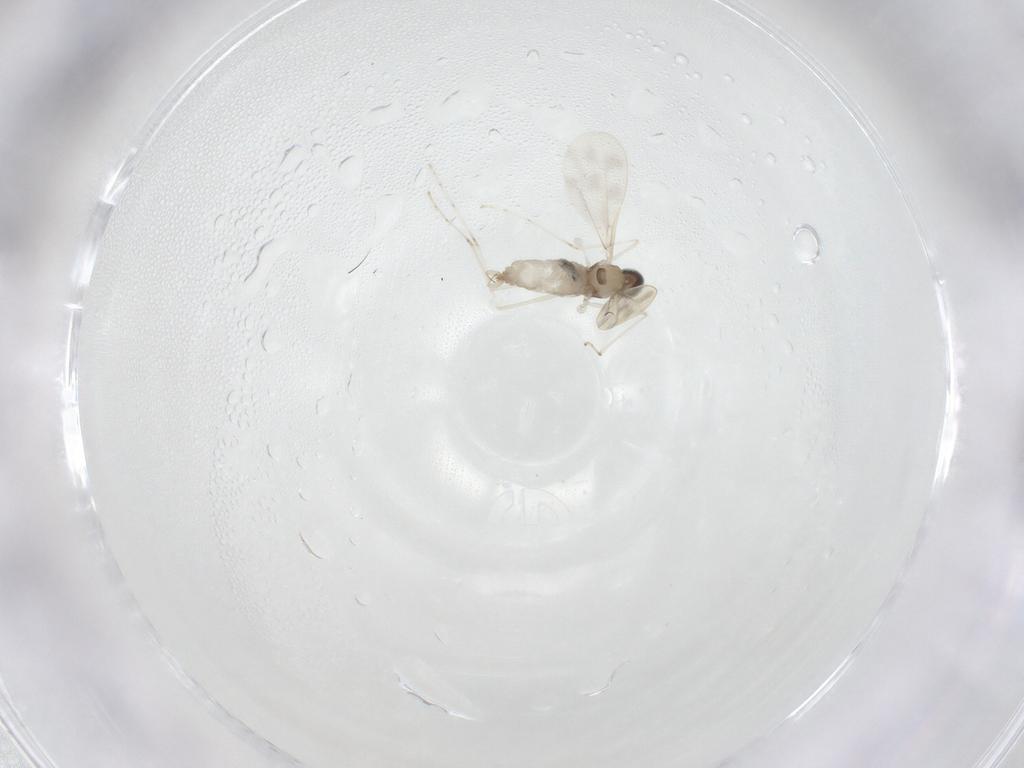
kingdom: Animalia
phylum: Arthropoda
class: Insecta
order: Diptera
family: Cecidomyiidae
